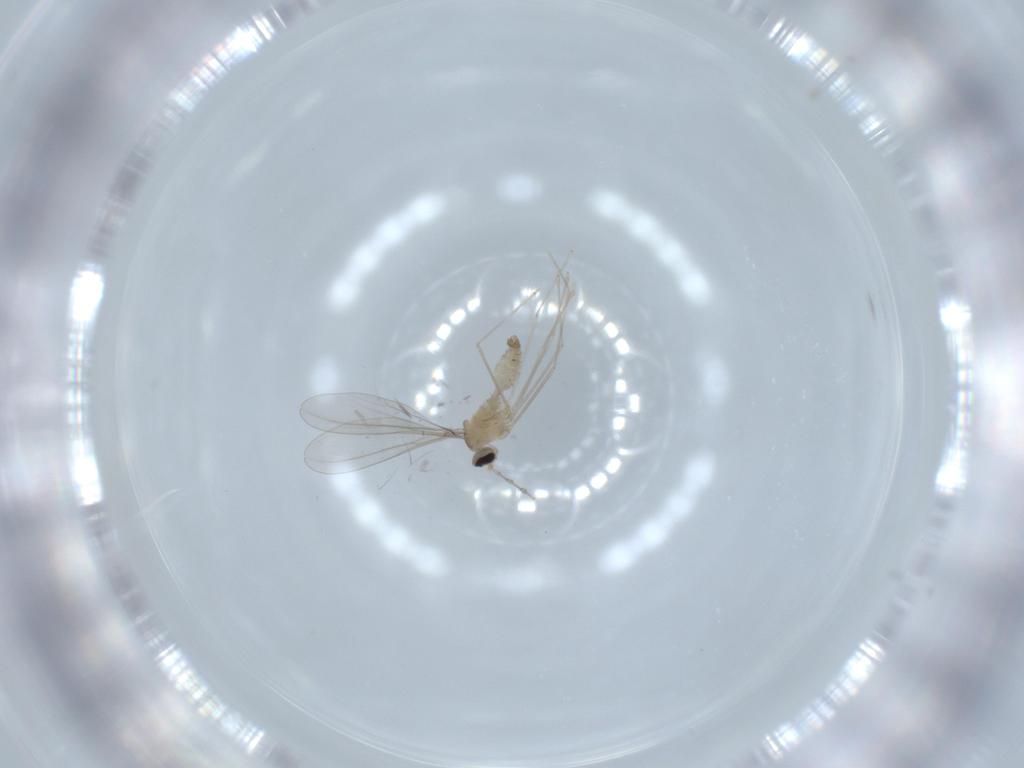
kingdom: Animalia
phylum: Arthropoda
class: Insecta
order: Diptera
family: Cecidomyiidae
